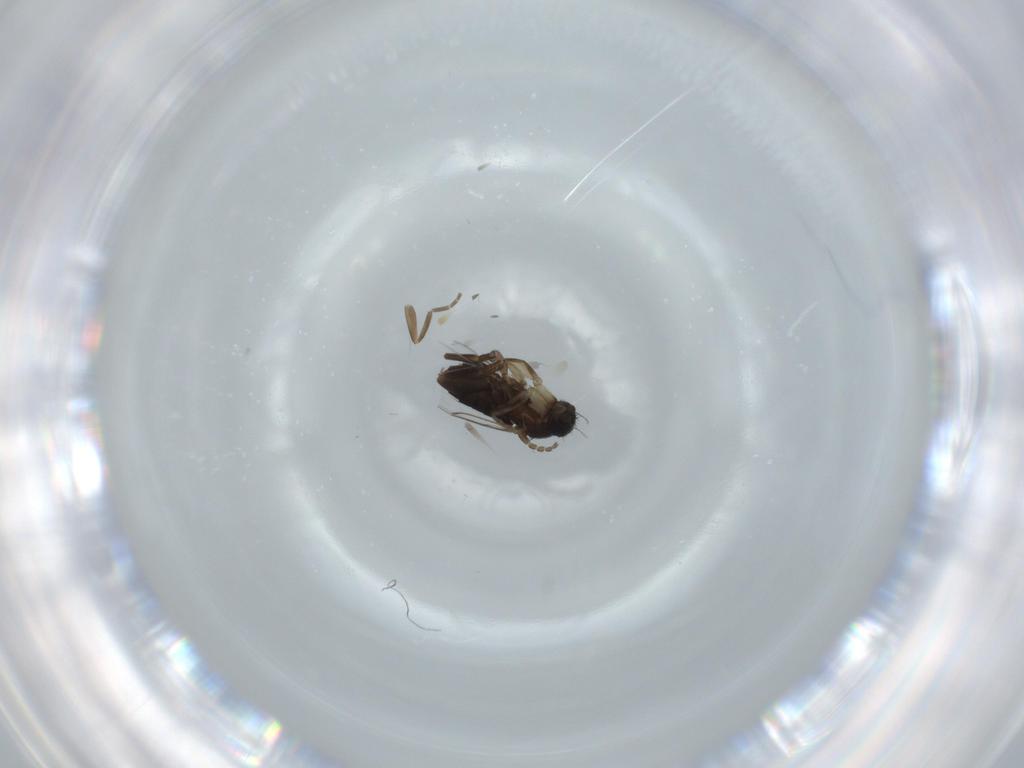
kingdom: Animalia
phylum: Arthropoda
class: Insecta
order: Diptera
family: Phoridae
